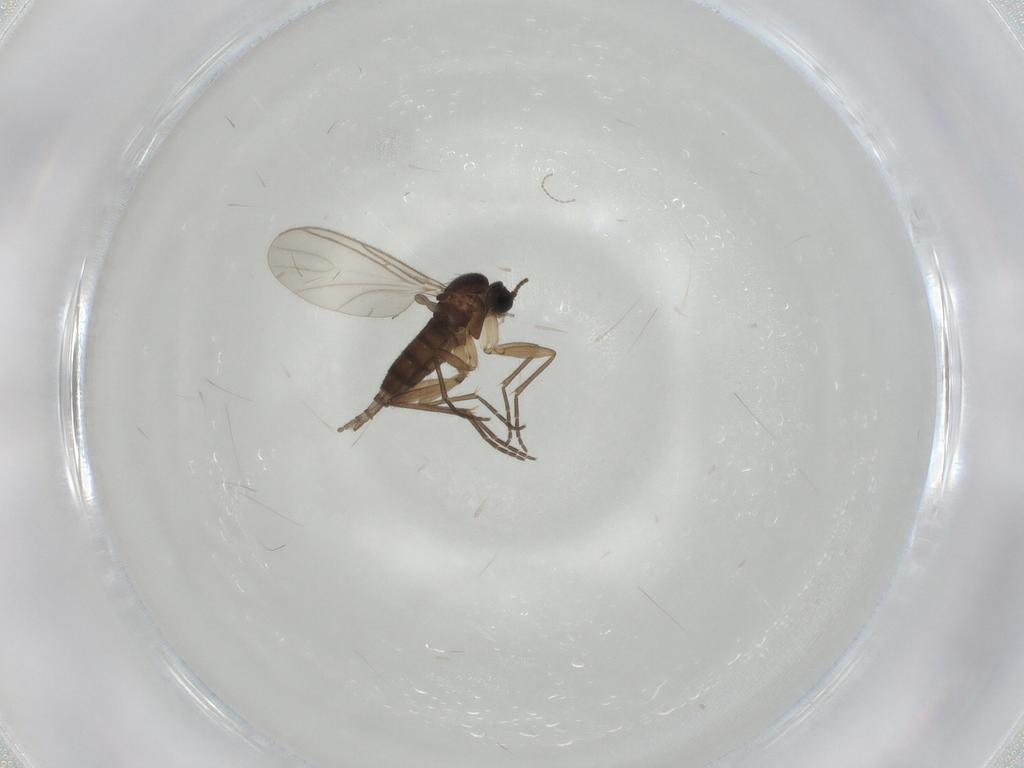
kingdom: Animalia
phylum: Arthropoda
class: Insecta
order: Diptera
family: Sciaridae
